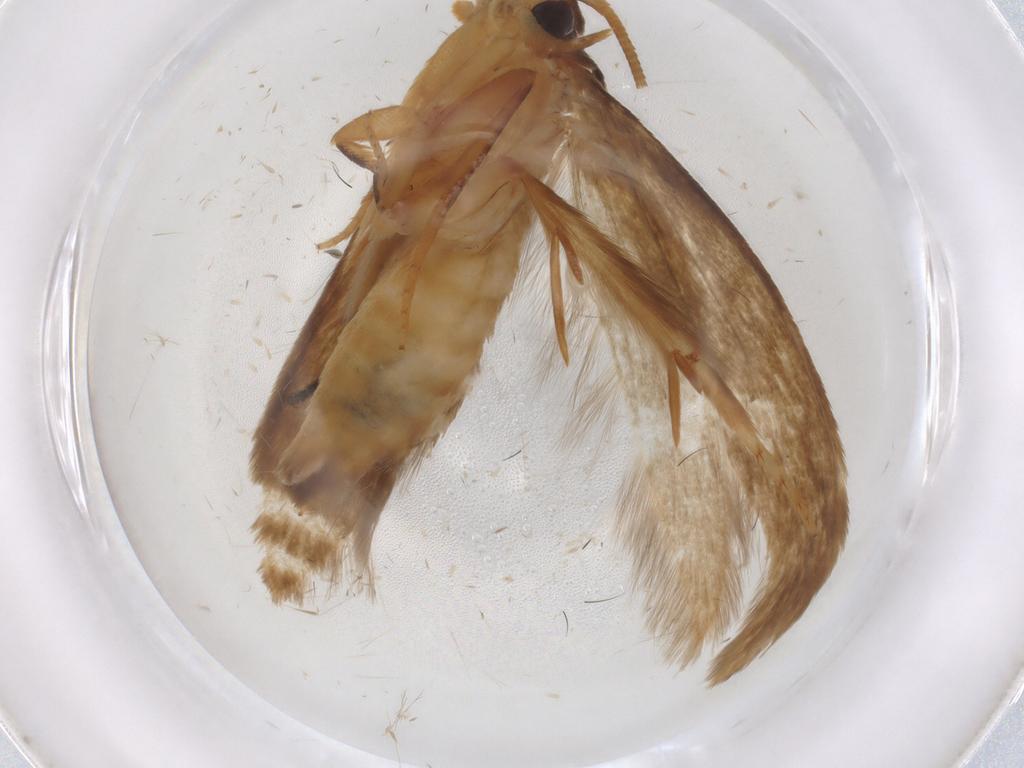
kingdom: Animalia
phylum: Arthropoda
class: Insecta
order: Lepidoptera
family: Tineidae
